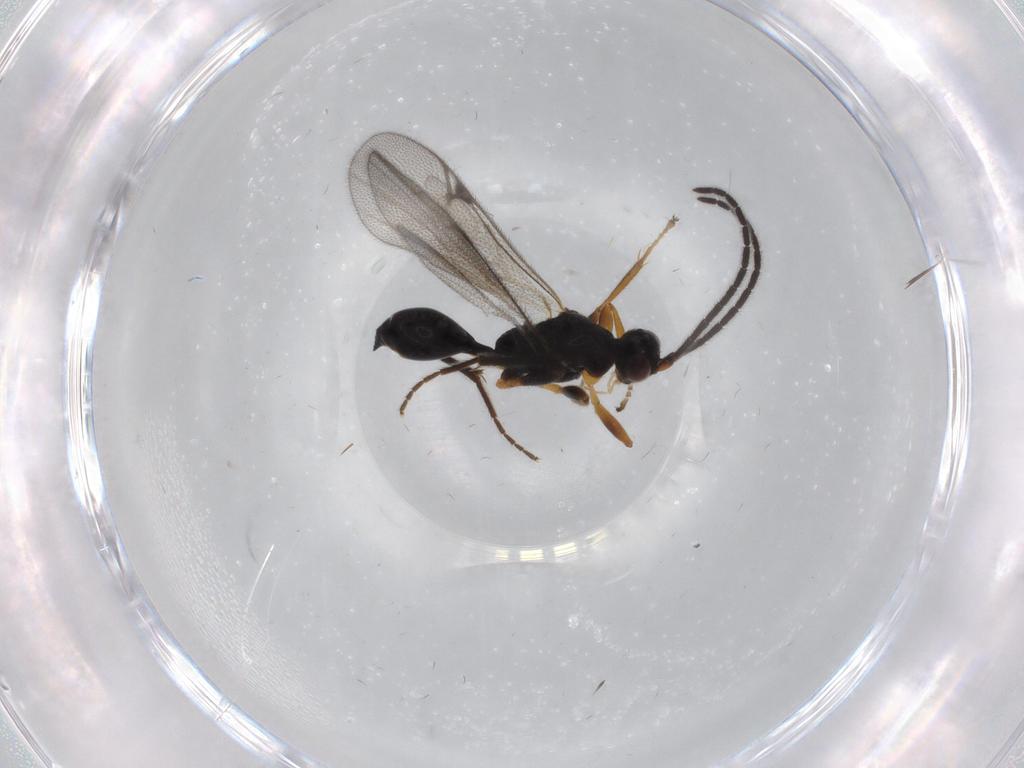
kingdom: Animalia
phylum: Arthropoda
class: Insecta
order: Hymenoptera
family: Proctotrupidae
